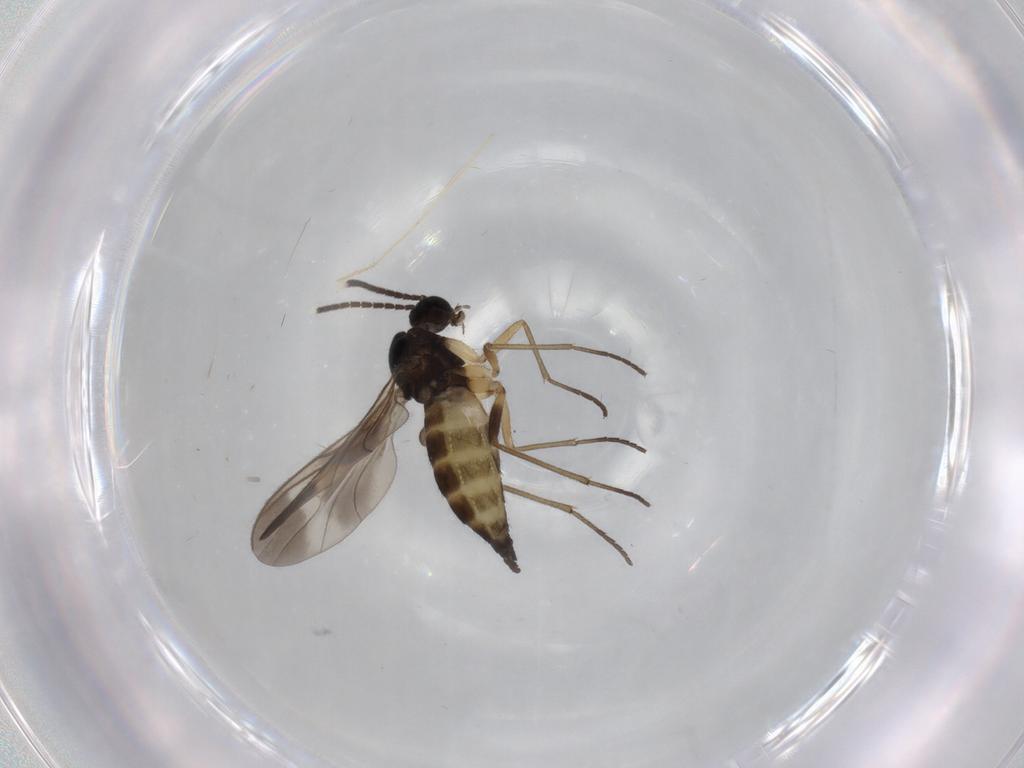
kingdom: Animalia
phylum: Arthropoda
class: Insecta
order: Diptera
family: Sciaridae
